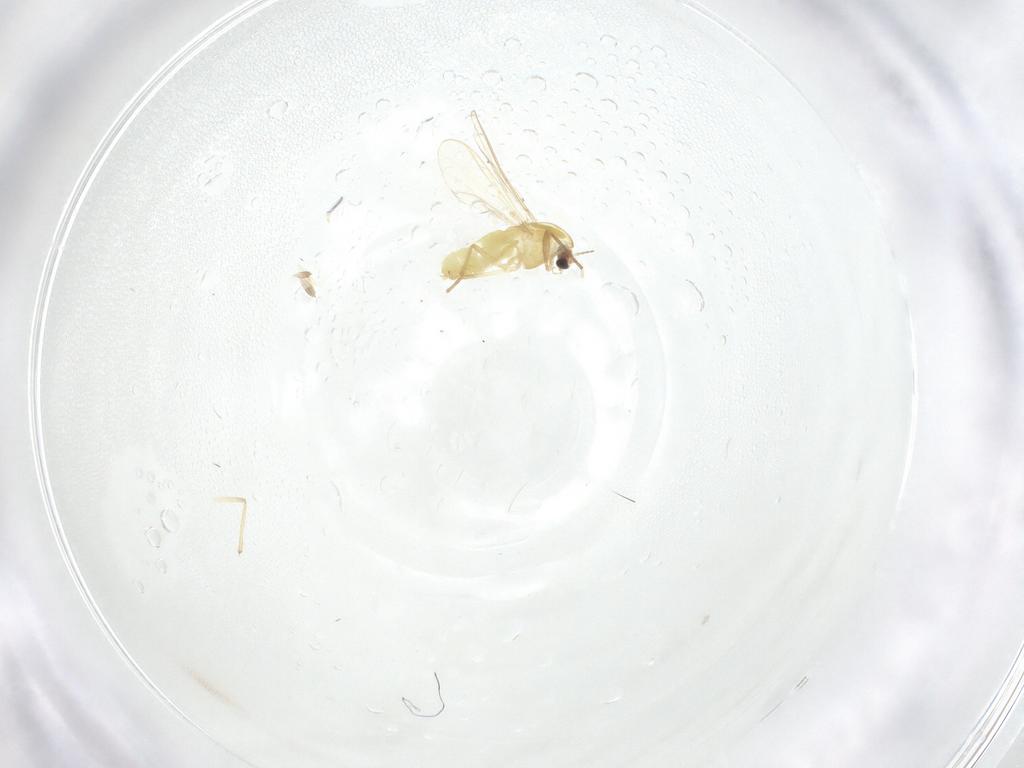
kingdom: Animalia
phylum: Arthropoda
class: Insecta
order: Diptera
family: Chironomidae
